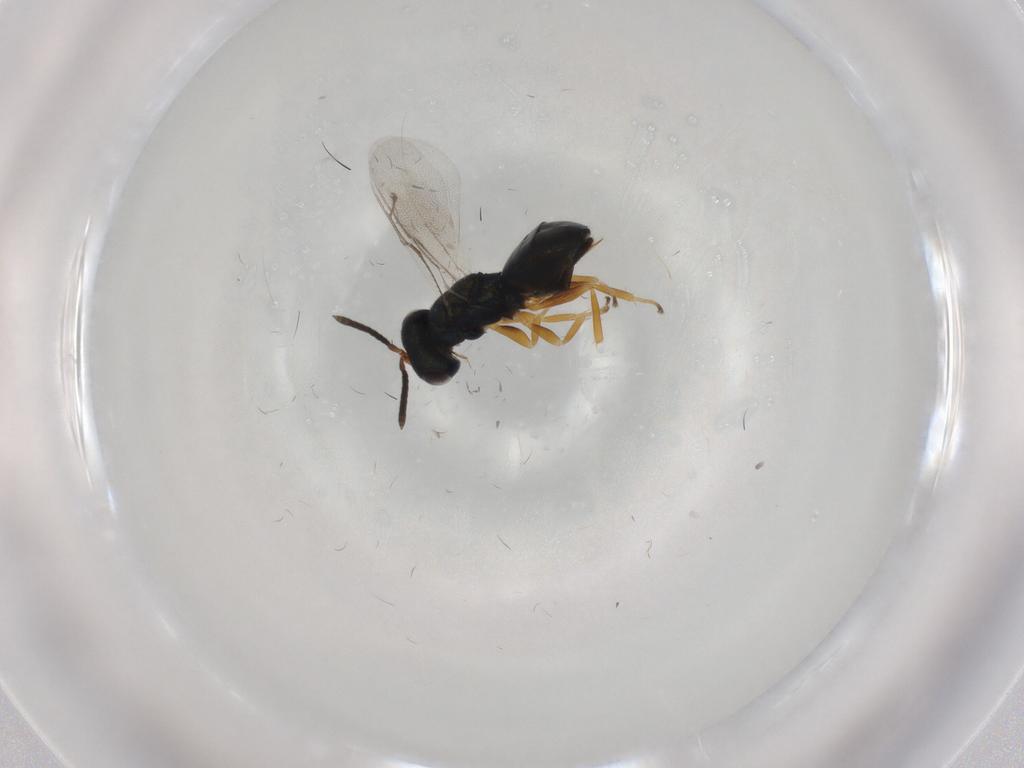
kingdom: Animalia
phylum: Arthropoda
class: Insecta
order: Hymenoptera
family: Pteromalidae
